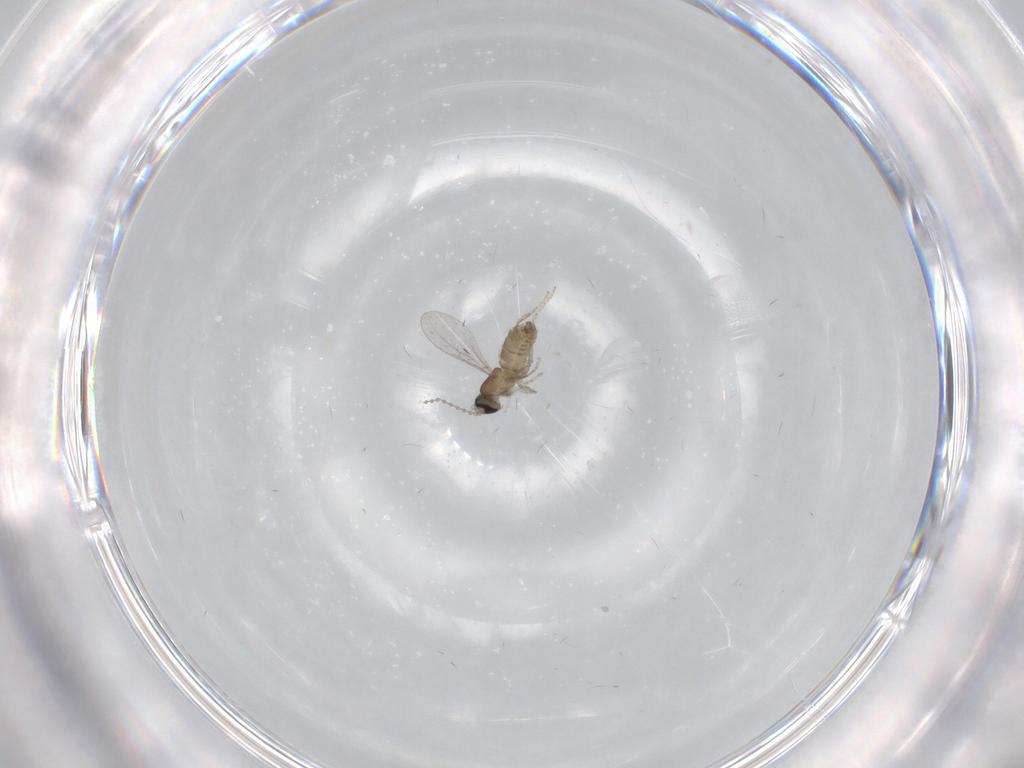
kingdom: Animalia
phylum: Arthropoda
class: Insecta
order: Diptera
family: Cecidomyiidae
